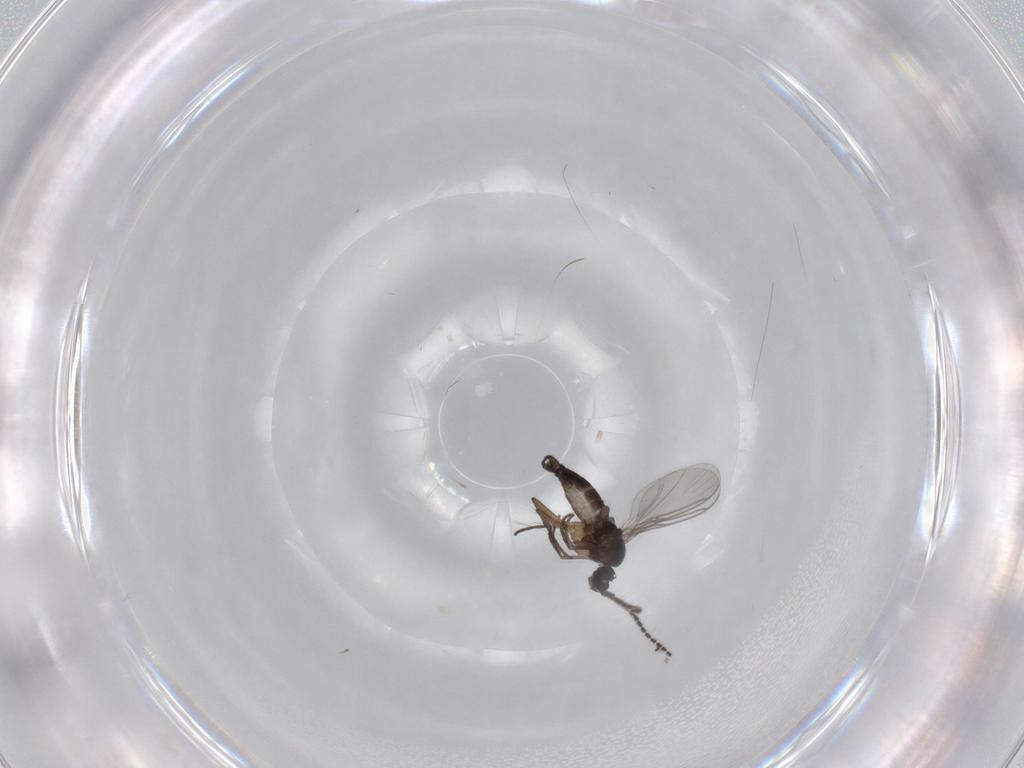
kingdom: Animalia
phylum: Arthropoda
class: Insecta
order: Diptera
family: Sciaridae
